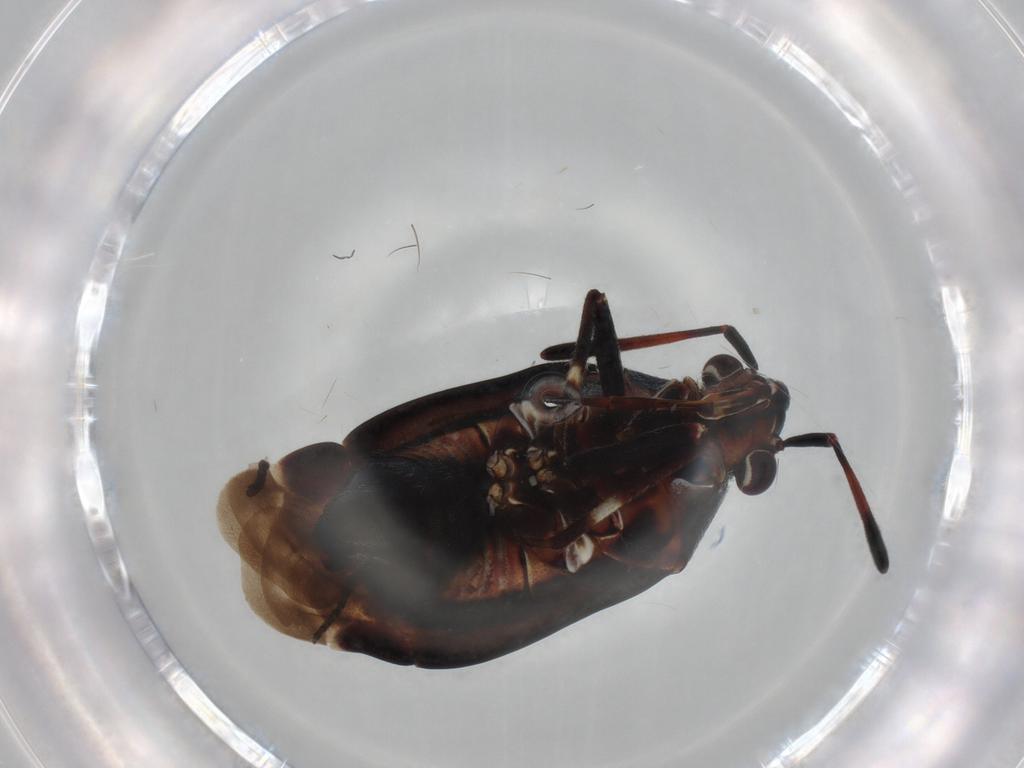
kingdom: Animalia
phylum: Arthropoda
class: Insecta
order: Hemiptera
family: Miridae
